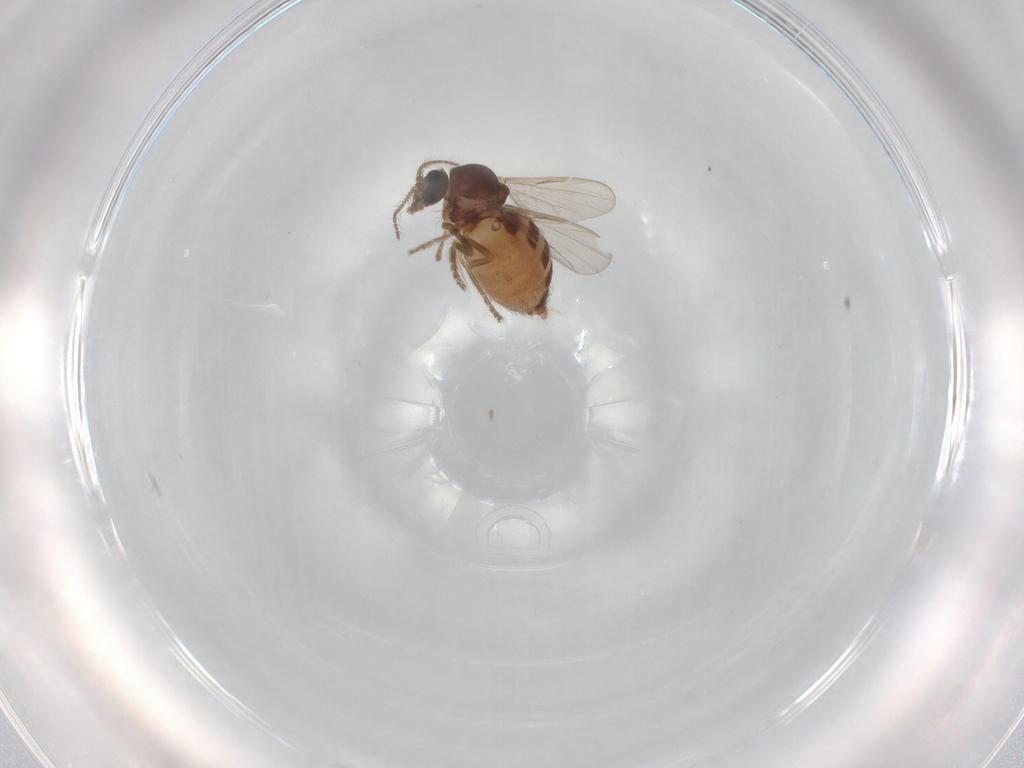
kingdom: Animalia
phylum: Arthropoda
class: Insecta
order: Diptera
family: Ceratopogonidae
